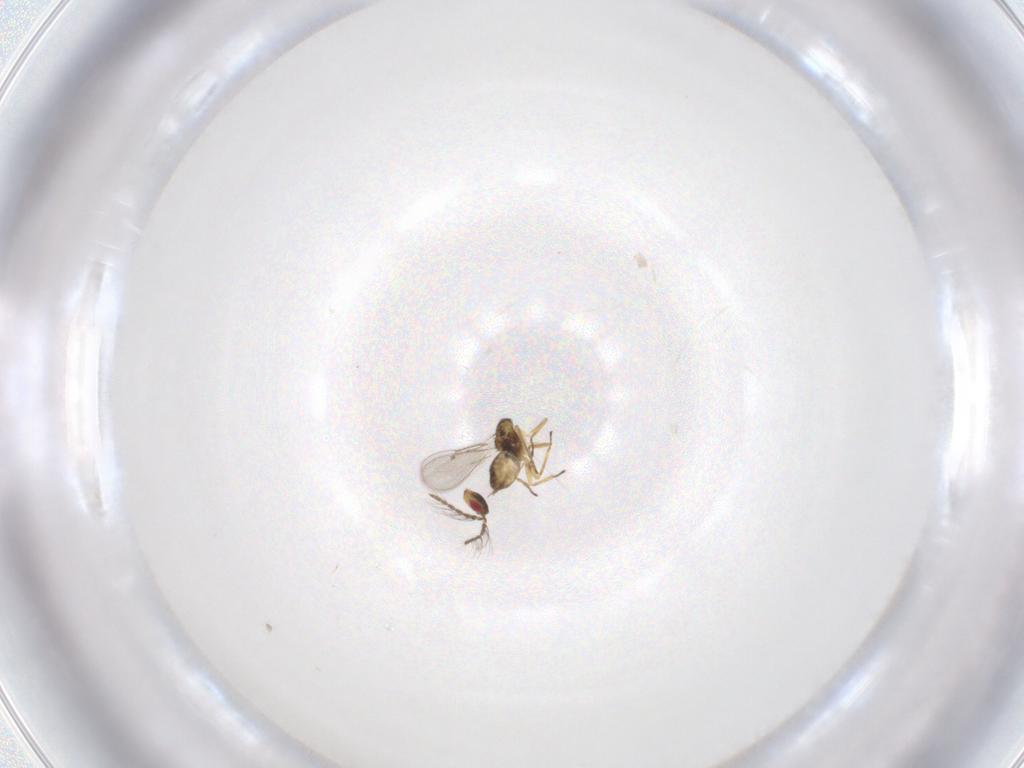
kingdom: Animalia
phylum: Arthropoda
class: Insecta
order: Hymenoptera
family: Eulophidae
